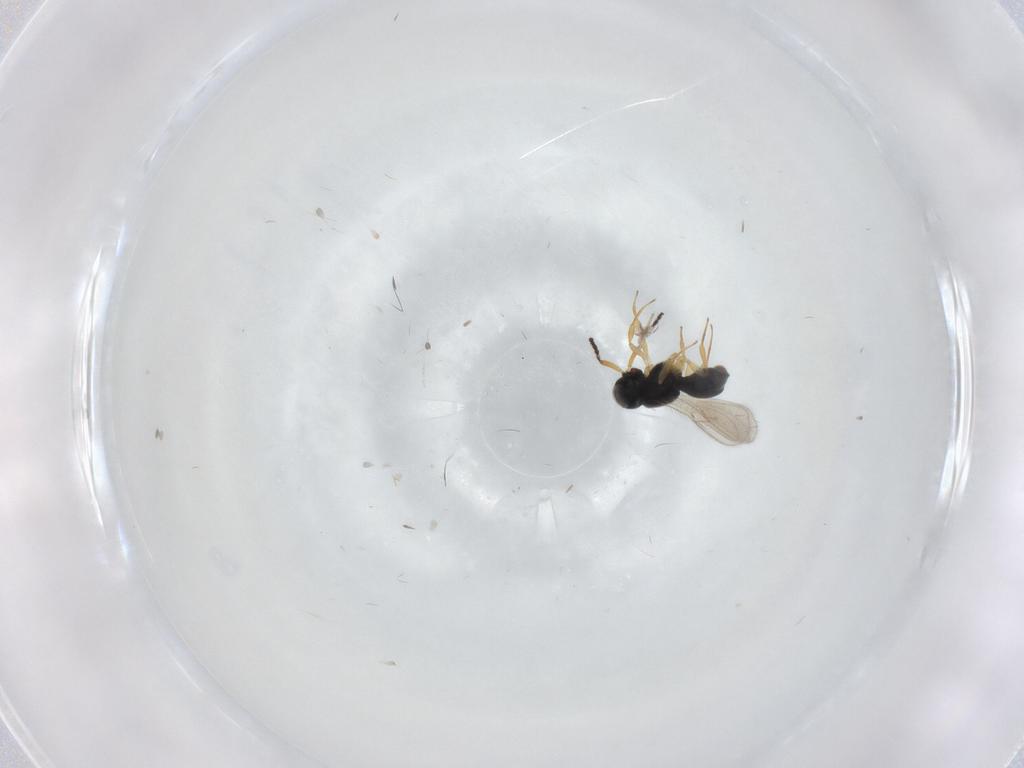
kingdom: Animalia
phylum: Arthropoda
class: Insecta
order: Hymenoptera
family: Scelionidae
